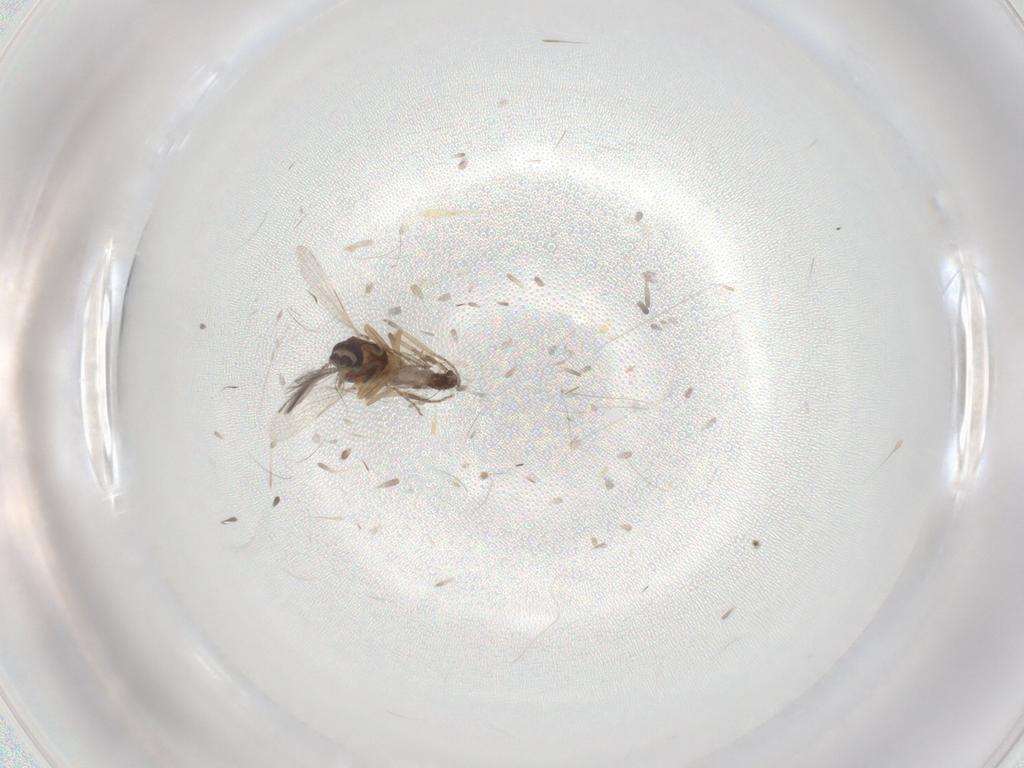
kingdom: Animalia
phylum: Arthropoda
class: Insecta
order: Diptera
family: Ceratopogonidae
